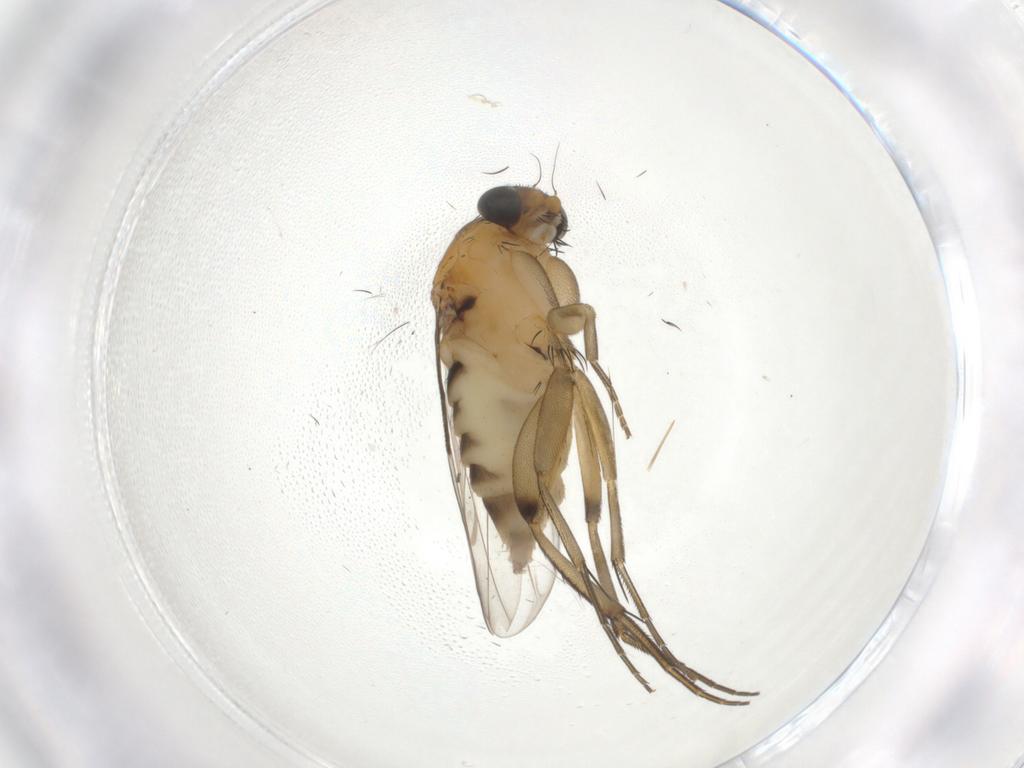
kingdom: Animalia
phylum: Arthropoda
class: Insecta
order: Diptera
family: Phoridae
